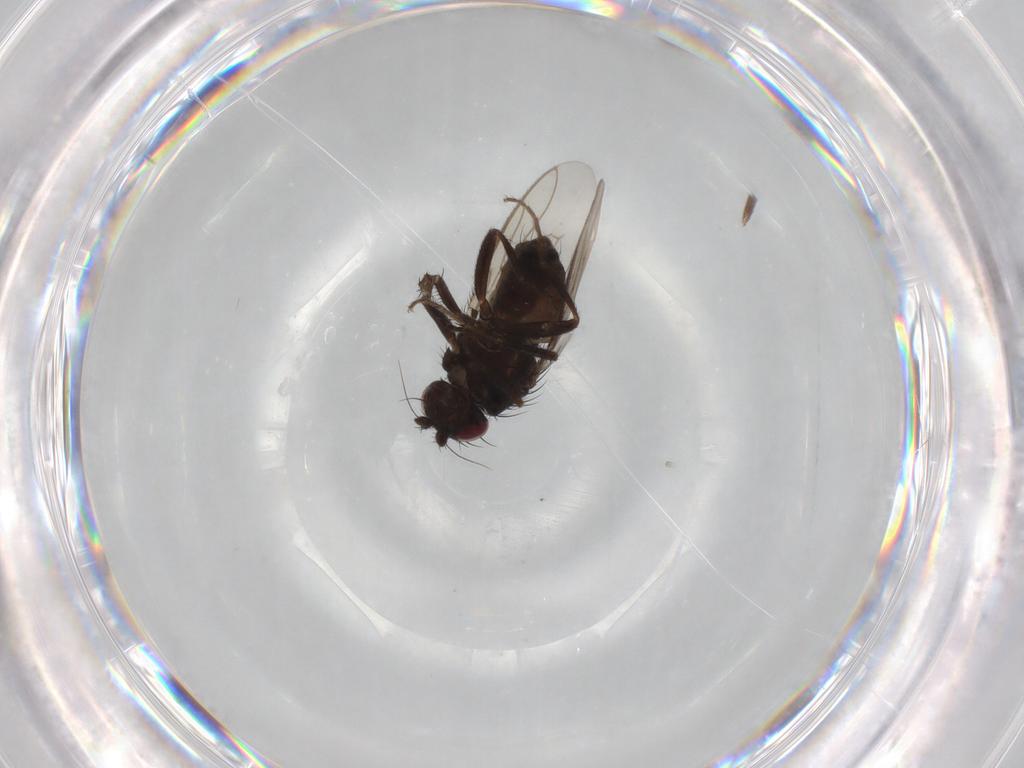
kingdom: Animalia
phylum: Arthropoda
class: Insecta
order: Diptera
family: Sphaeroceridae
